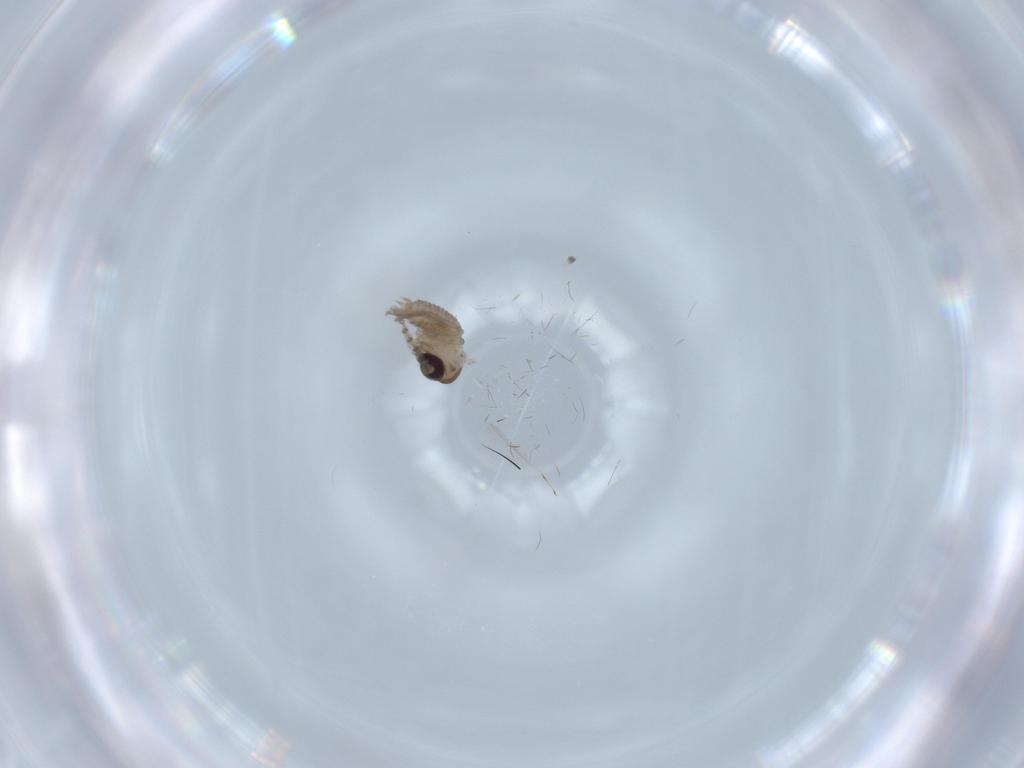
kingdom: Animalia
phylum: Arthropoda
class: Insecta
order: Diptera
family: Psychodidae
